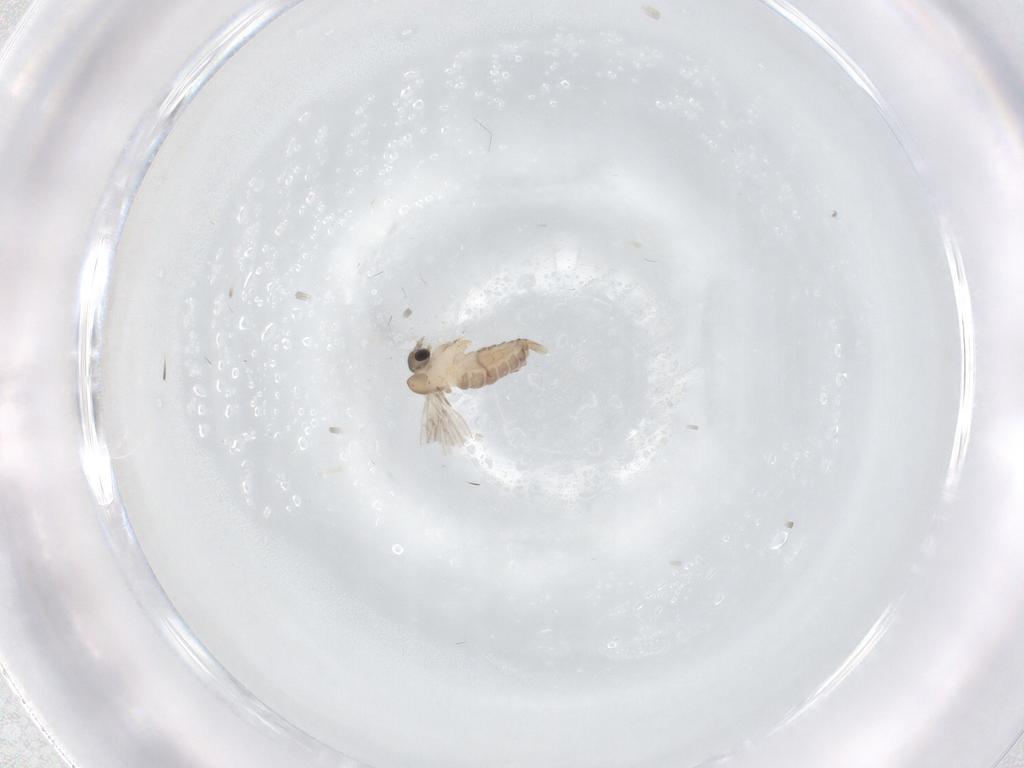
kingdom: Animalia
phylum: Arthropoda
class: Insecta
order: Diptera
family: Psychodidae
